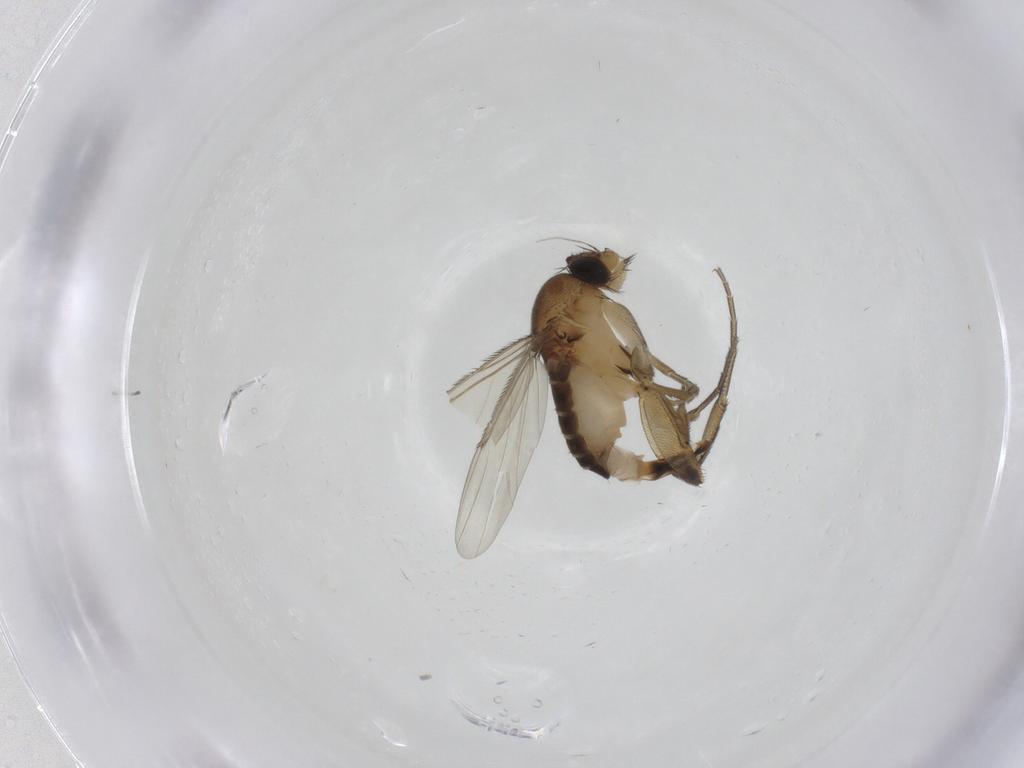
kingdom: Animalia
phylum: Arthropoda
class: Insecta
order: Diptera
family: Phoridae
